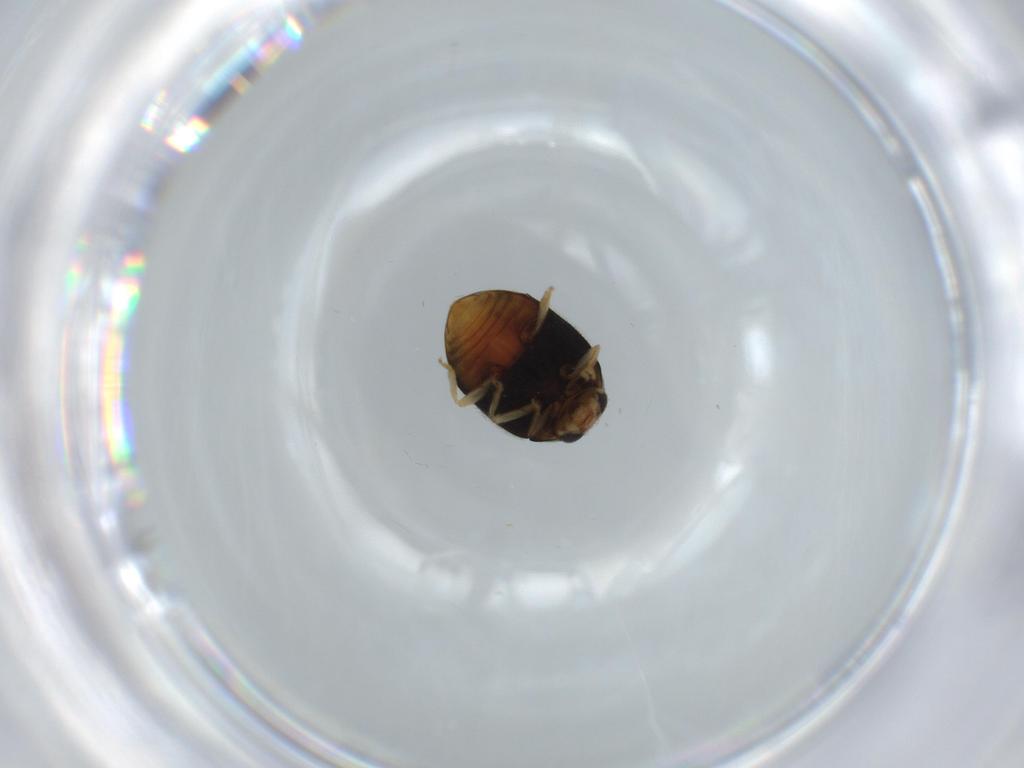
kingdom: Animalia
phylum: Arthropoda
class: Insecta
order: Coleoptera
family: Coccinellidae
